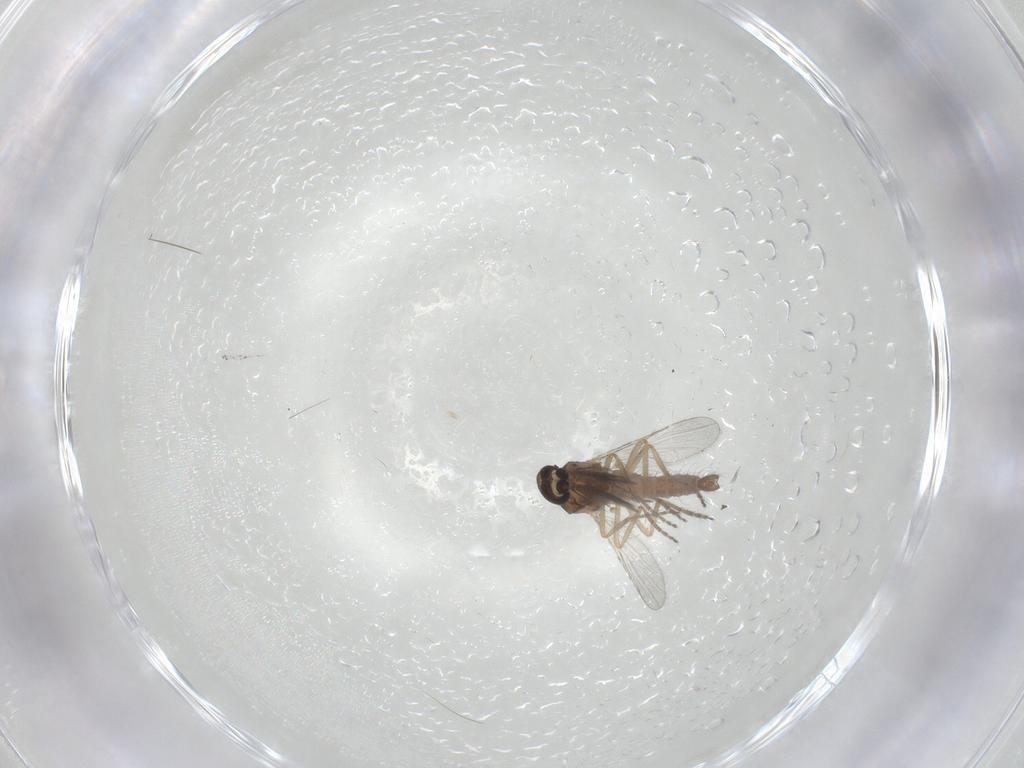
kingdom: Animalia
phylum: Arthropoda
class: Insecta
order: Diptera
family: Ceratopogonidae
